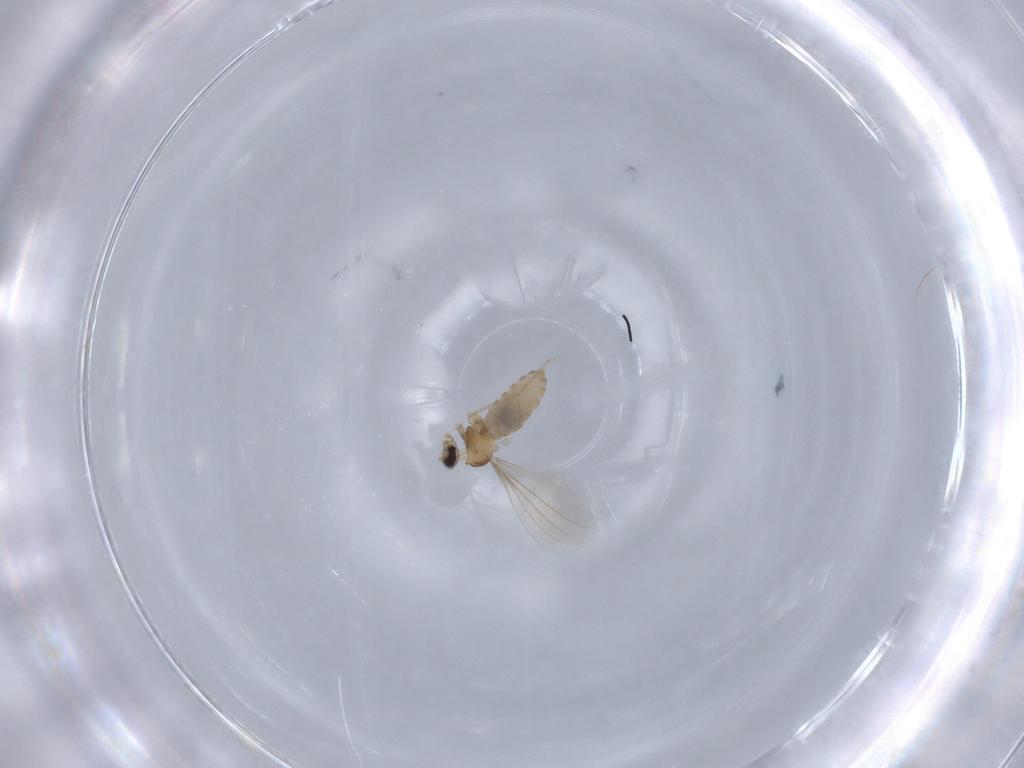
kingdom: Animalia
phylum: Arthropoda
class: Insecta
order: Diptera
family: Cecidomyiidae
